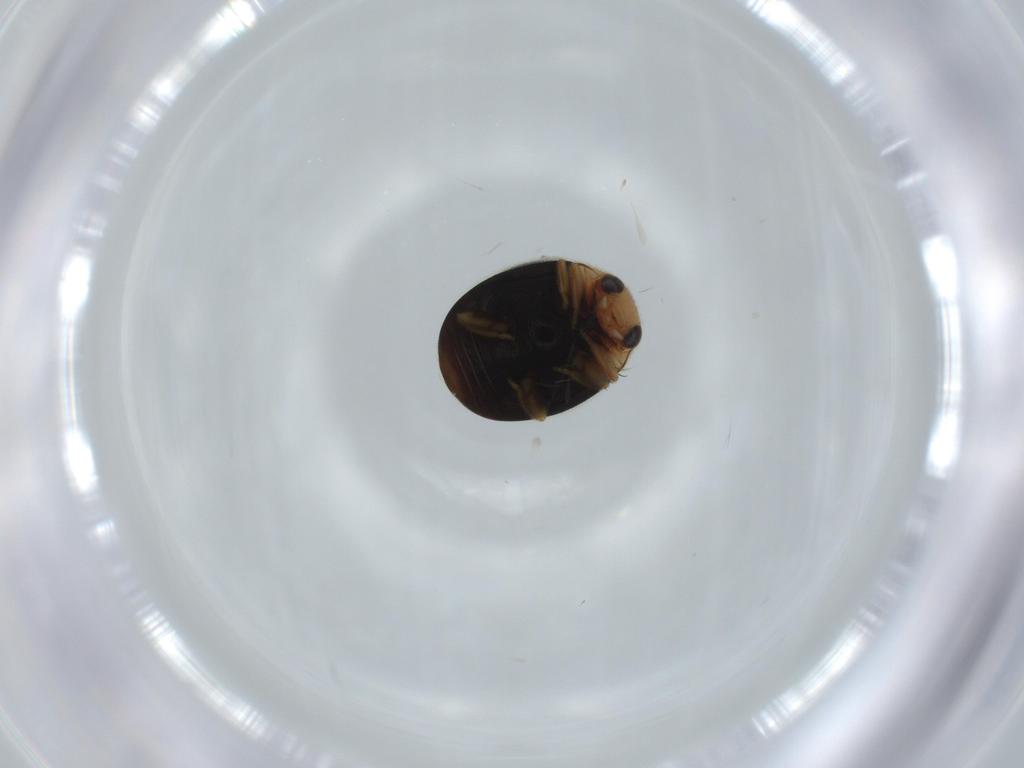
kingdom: Animalia
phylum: Arthropoda
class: Insecta
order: Coleoptera
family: Coccinellidae
